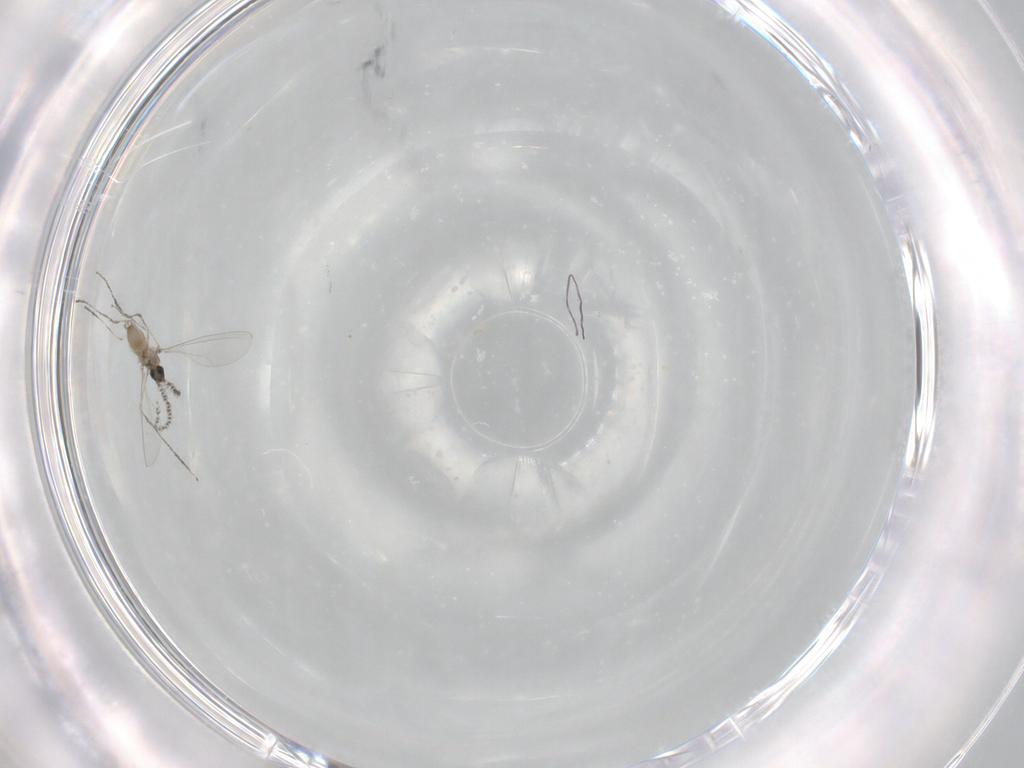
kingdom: Animalia
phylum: Arthropoda
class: Insecta
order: Diptera
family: Cecidomyiidae
